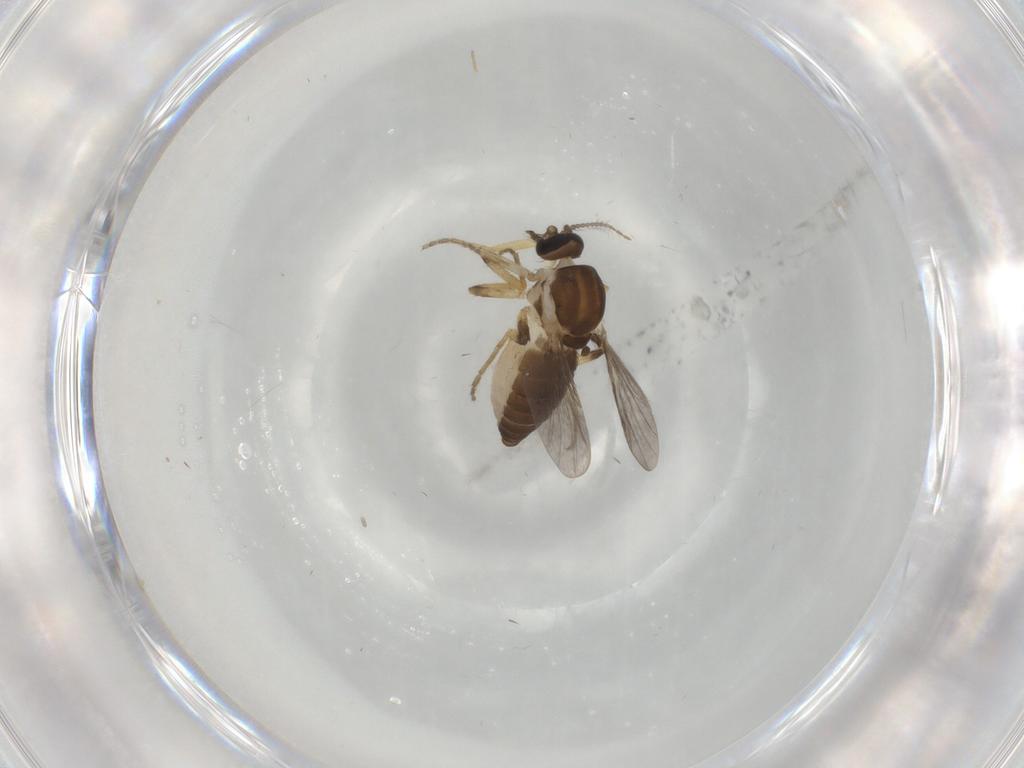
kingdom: Animalia
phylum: Arthropoda
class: Insecta
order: Diptera
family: Ceratopogonidae
